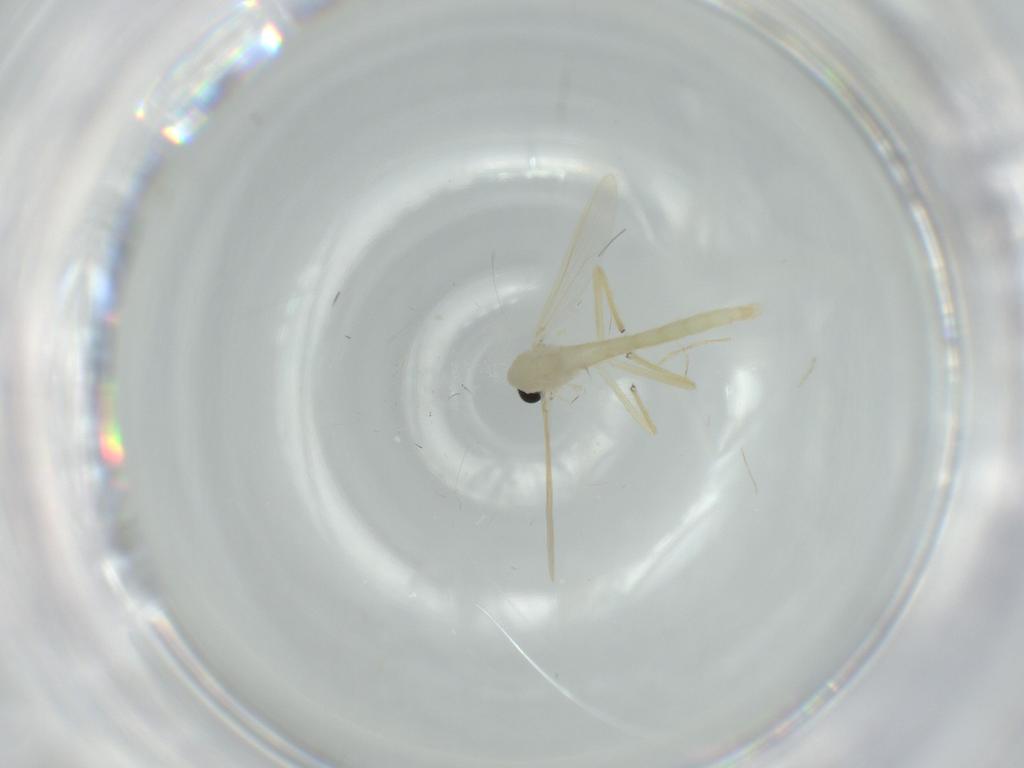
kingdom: Animalia
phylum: Arthropoda
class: Insecta
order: Diptera
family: Chironomidae
